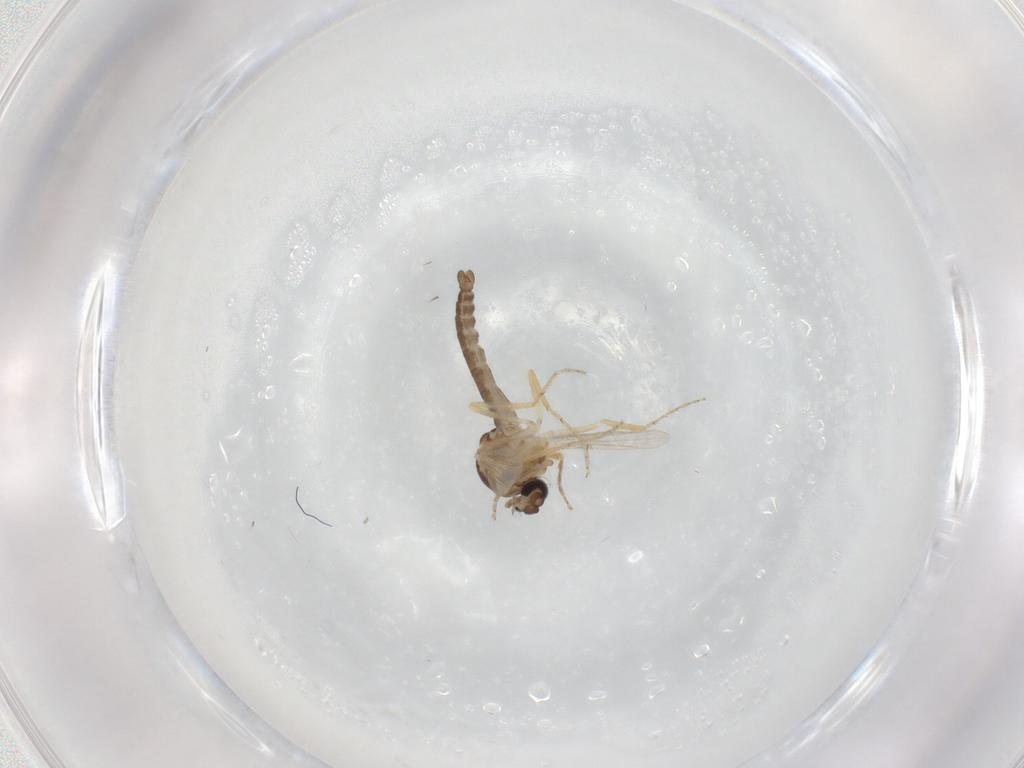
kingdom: Animalia
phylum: Arthropoda
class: Insecta
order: Diptera
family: Ceratopogonidae
